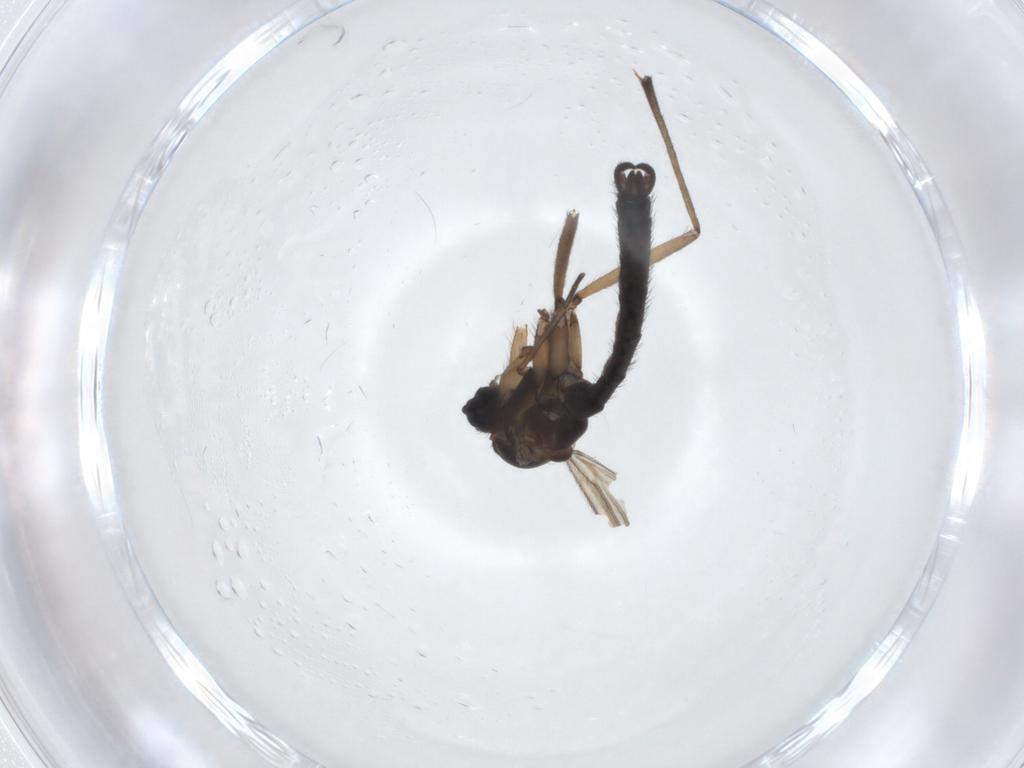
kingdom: Animalia
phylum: Arthropoda
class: Insecta
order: Diptera
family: Sciaridae
